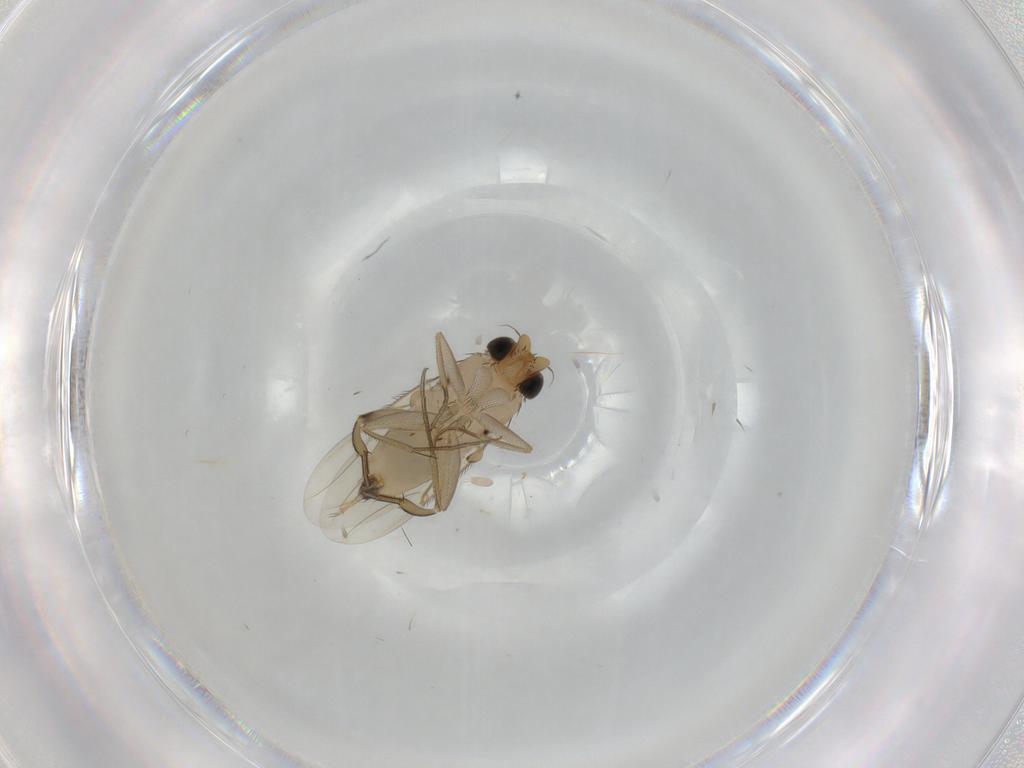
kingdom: Animalia
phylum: Arthropoda
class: Insecta
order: Diptera
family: Phoridae
